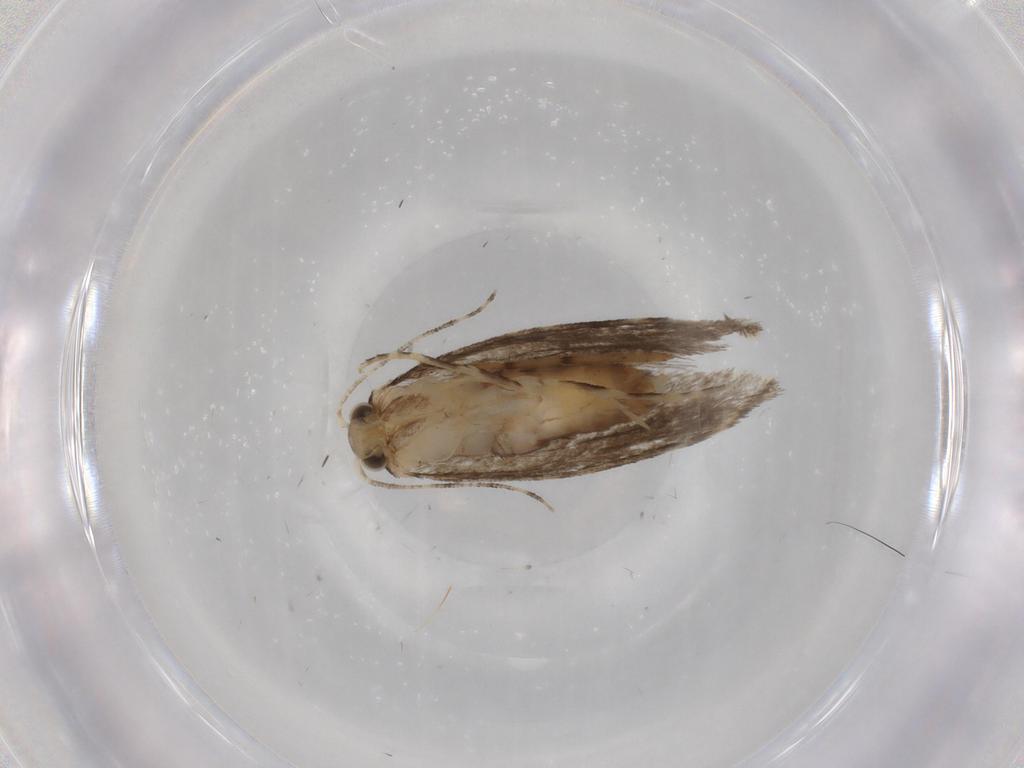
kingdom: Animalia
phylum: Arthropoda
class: Insecta
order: Lepidoptera
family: Tineidae
